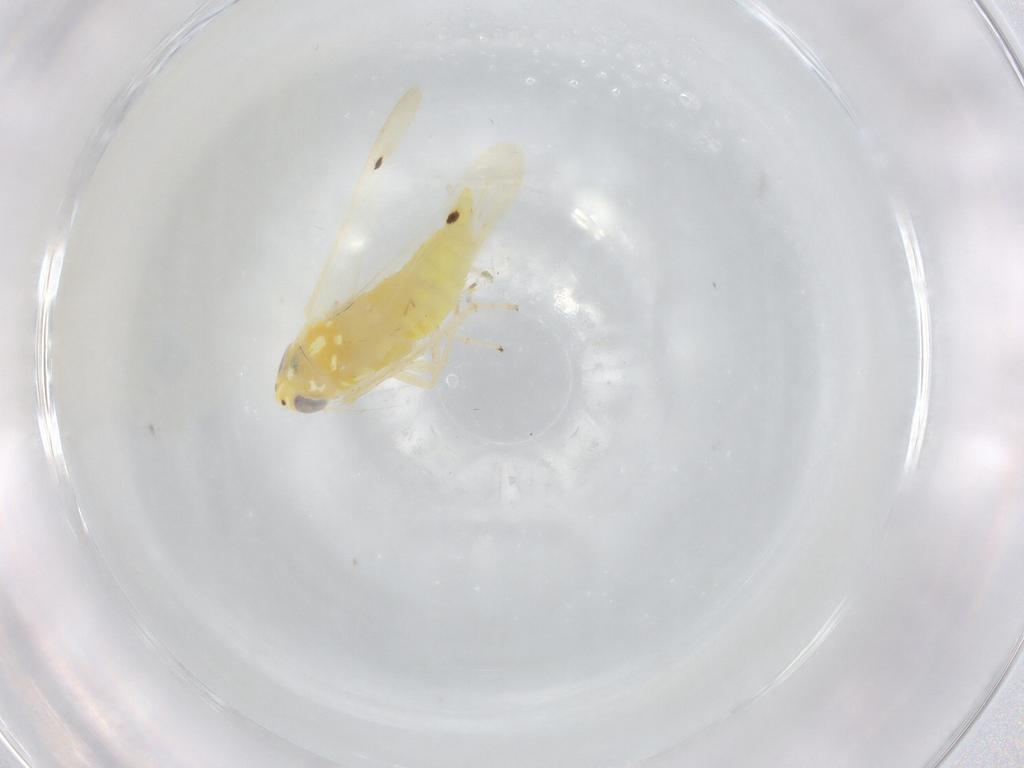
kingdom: Animalia
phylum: Arthropoda
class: Insecta
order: Hemiptera
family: Cicadellidae
